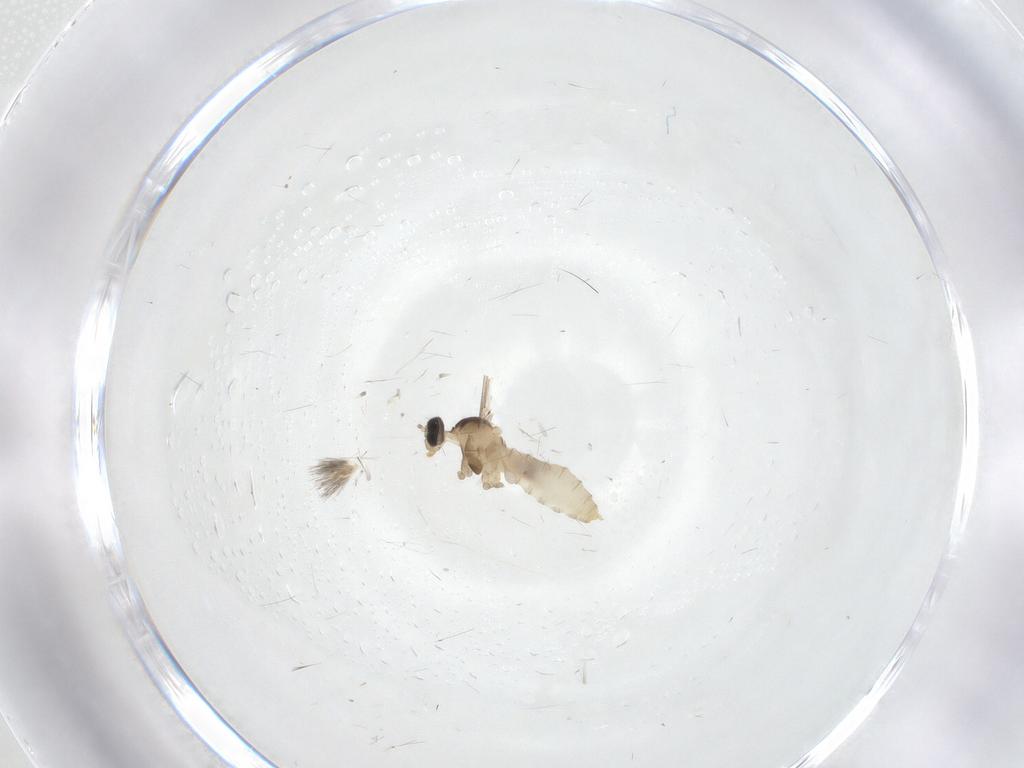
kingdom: Animalia
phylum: Arthropoda
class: Insecta
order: Diptera
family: Cecidomyiidae
